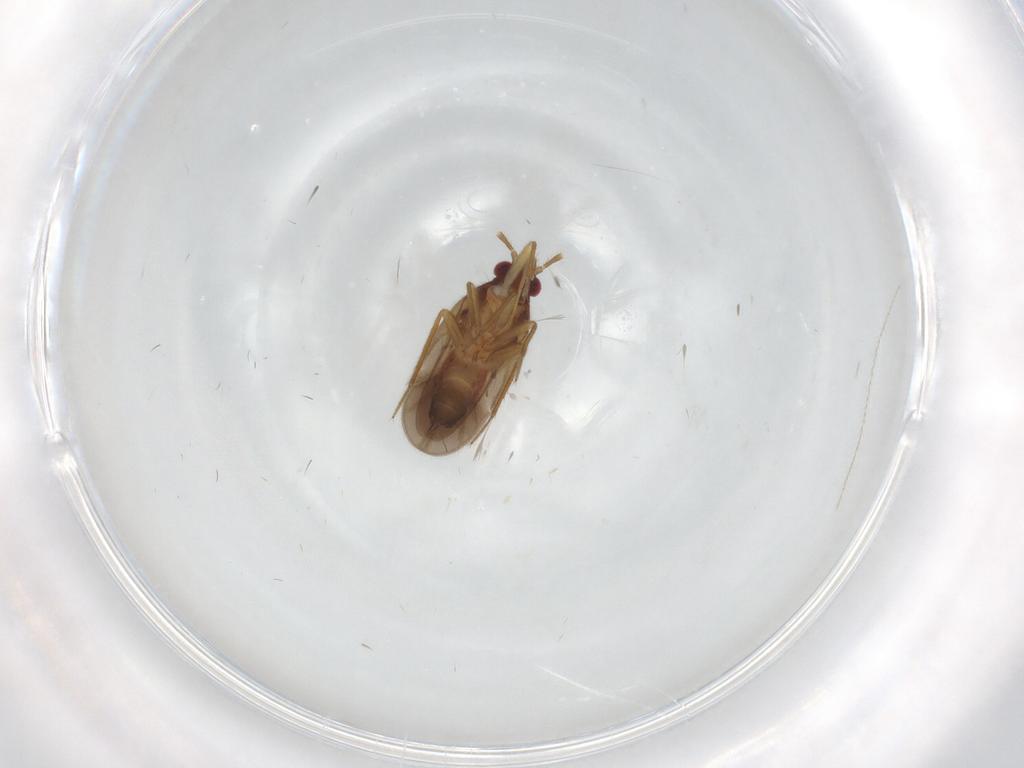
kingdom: Animalia
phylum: Arthropoda
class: Insecta
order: Hemiptera
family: Ceratocombidae
